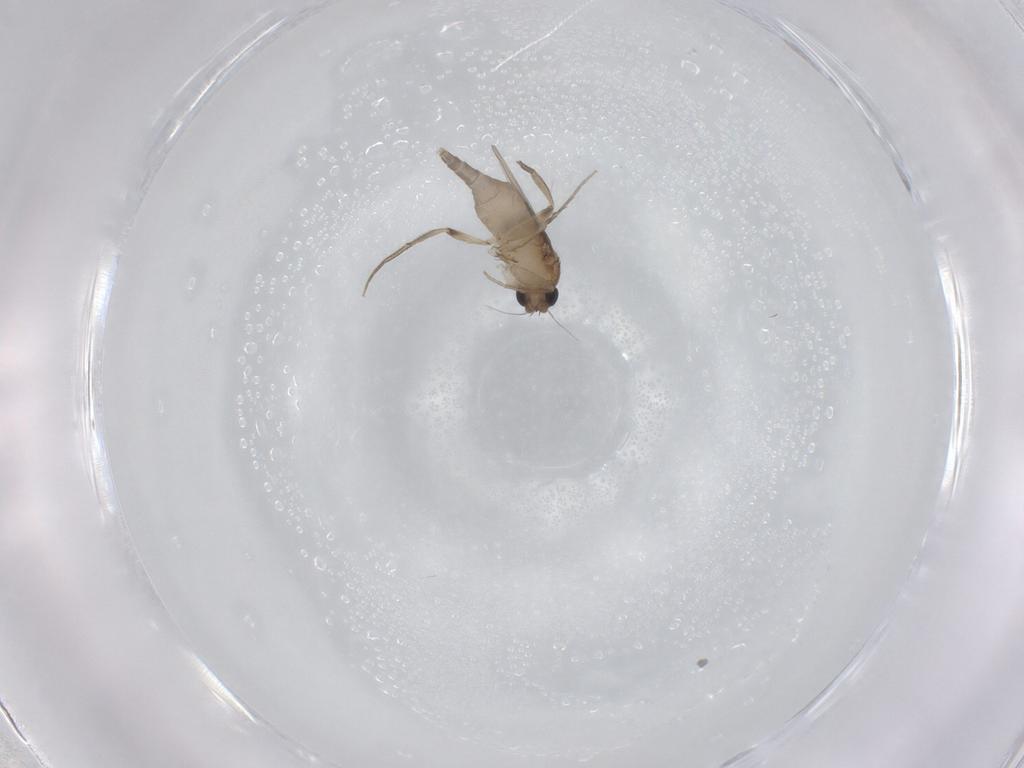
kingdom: Animalia
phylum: Arthropoda
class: Insecta
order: Diptera
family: Phoridae
